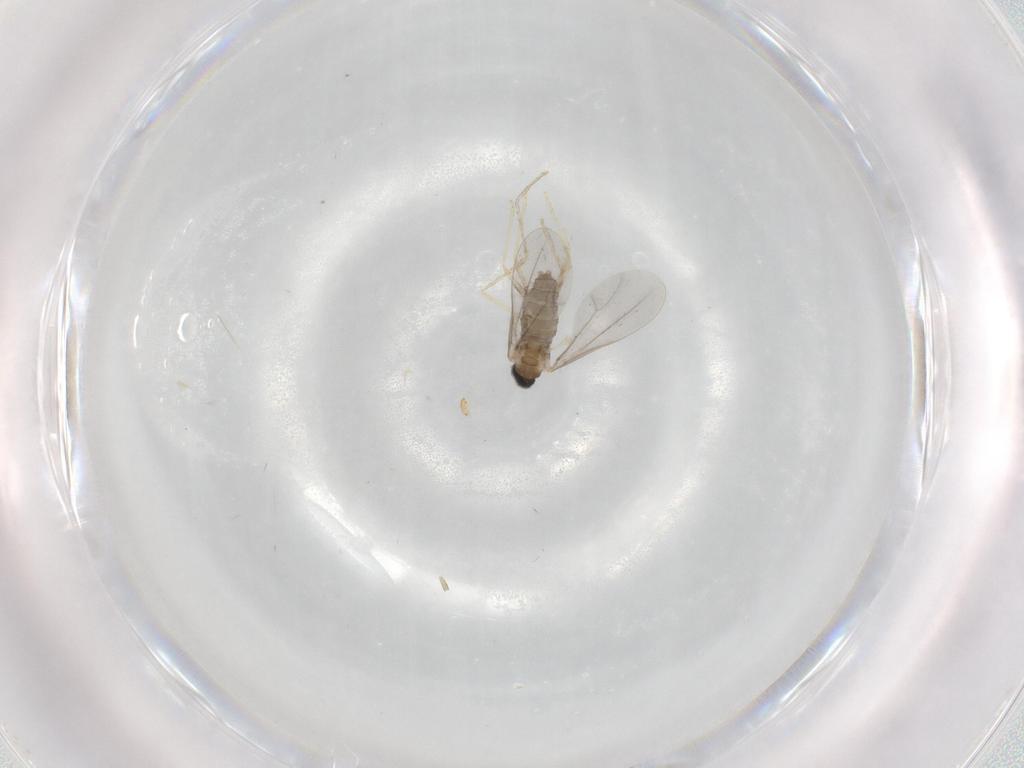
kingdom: Animalia
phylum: Arthropoda
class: Insecta
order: Diptera
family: Cecidomyiidae
